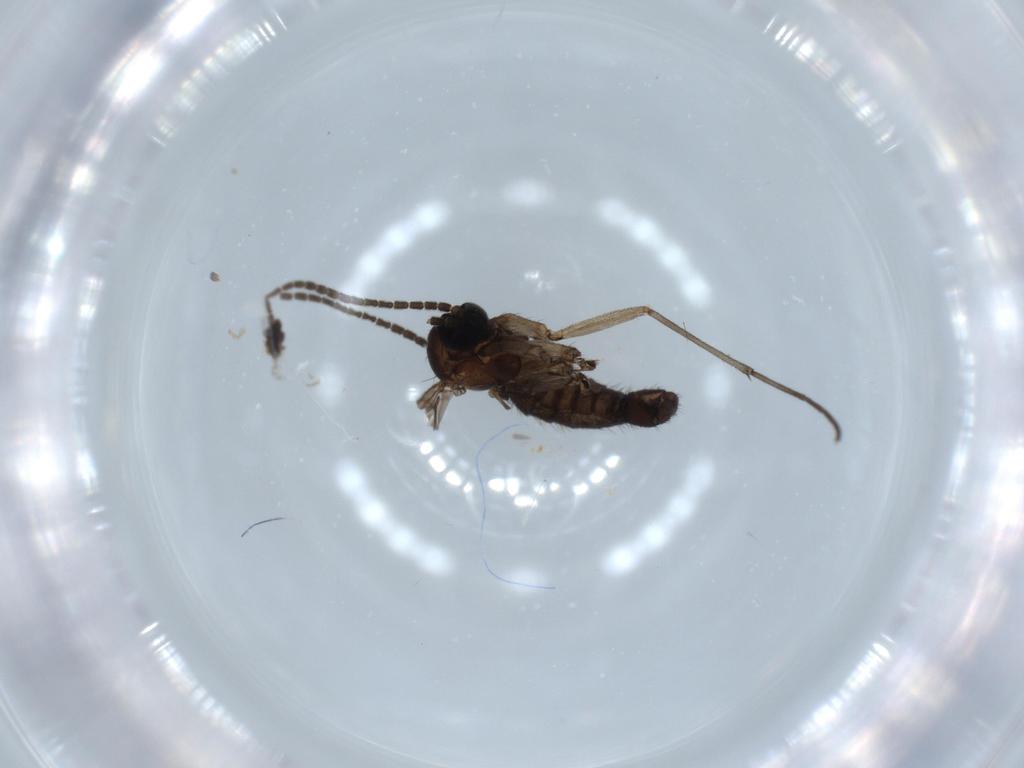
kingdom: Animalia
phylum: Arthropoda
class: Insecta
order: Diptera
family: Sciaridae
